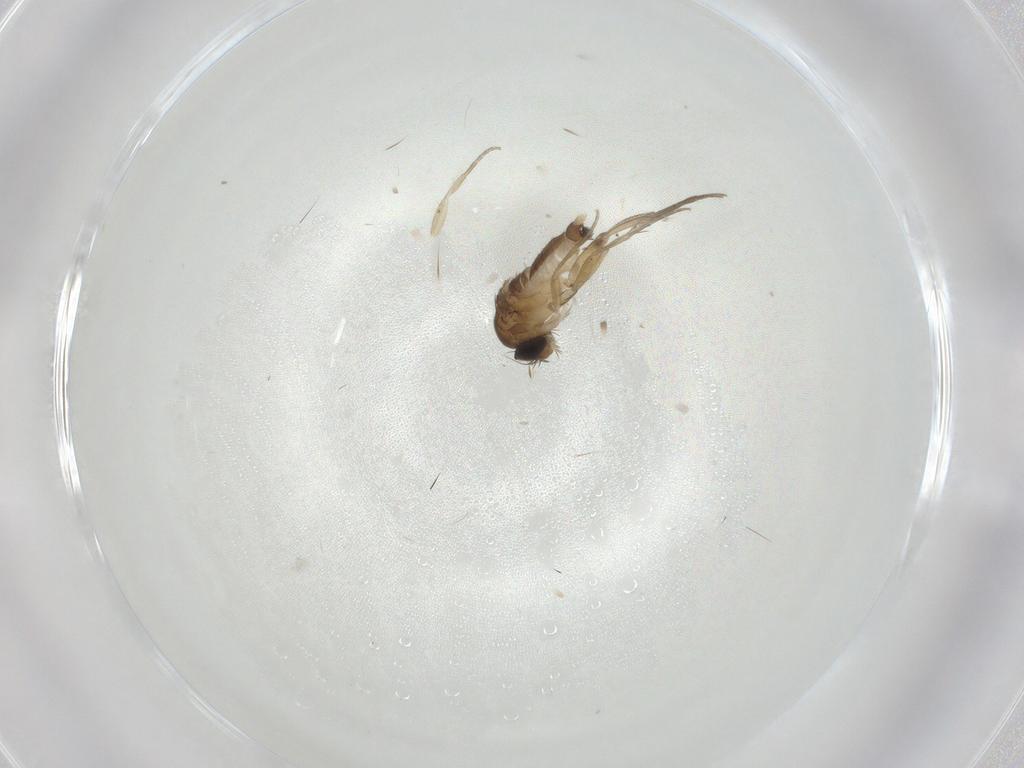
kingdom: Animalia
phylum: Arthropoda
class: Insecta
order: Diptera
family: Phoridae
